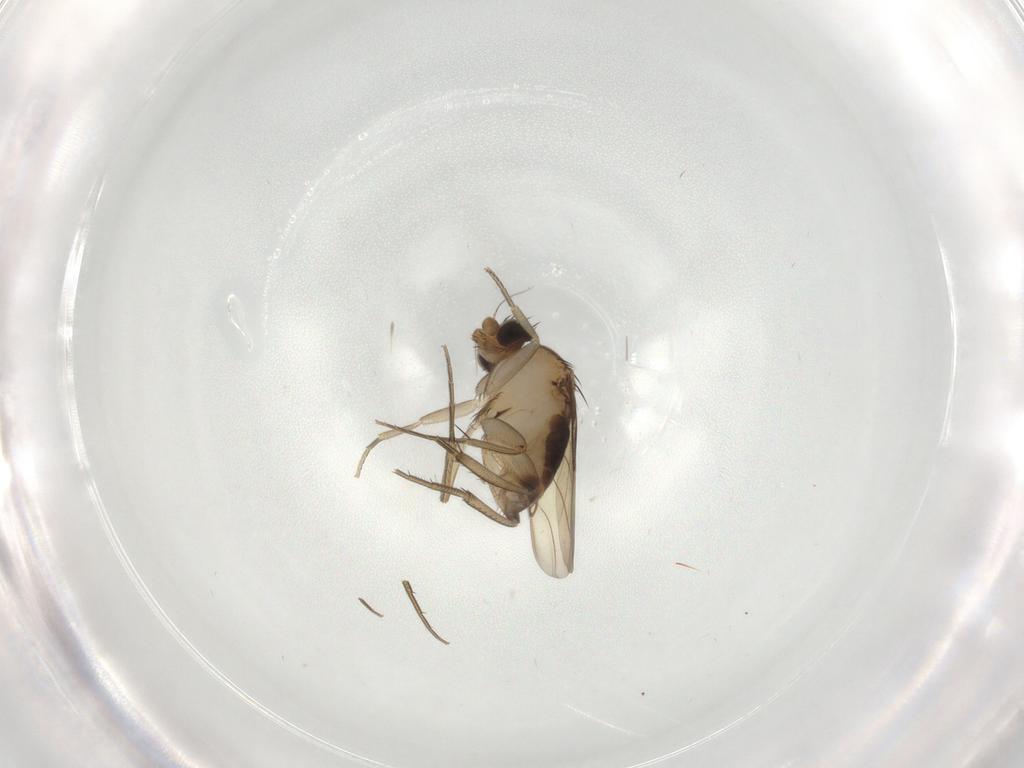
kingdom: Animalia
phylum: Arthropoda
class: Insecta
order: Diptera
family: Phoridae
